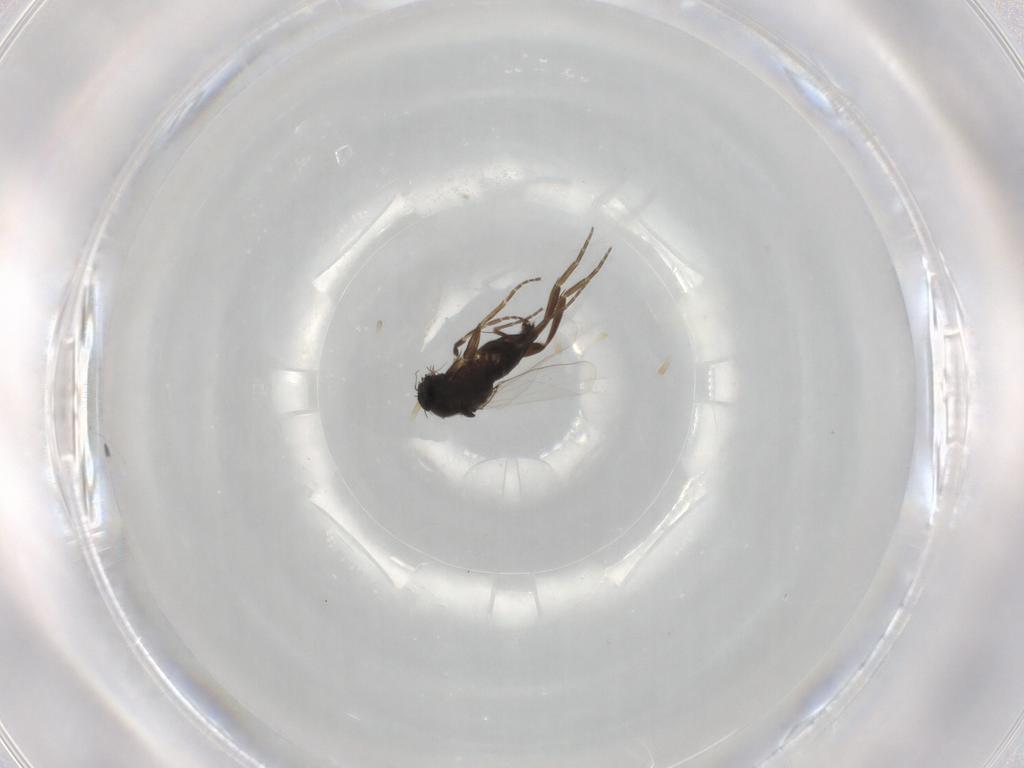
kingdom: Animalia
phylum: Arthropoda
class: Insecta
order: Diptera
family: Phoridae
